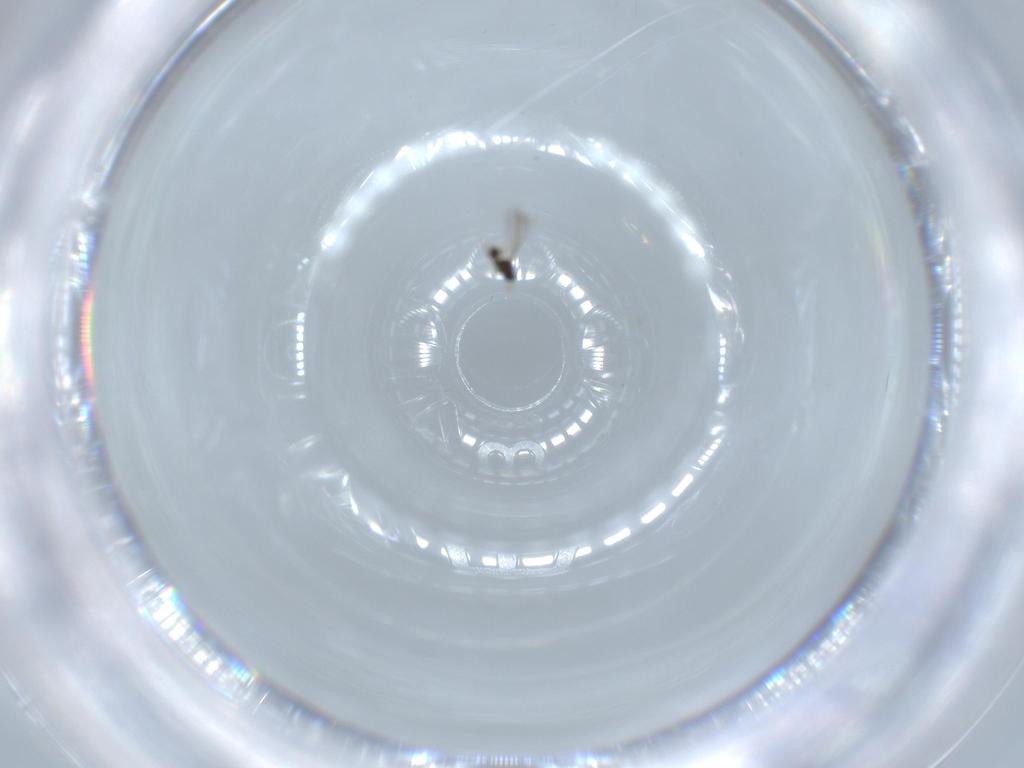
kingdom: Animalia
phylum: Arthropoda
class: Insecta
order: Hymenoptera
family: Mymaridae
